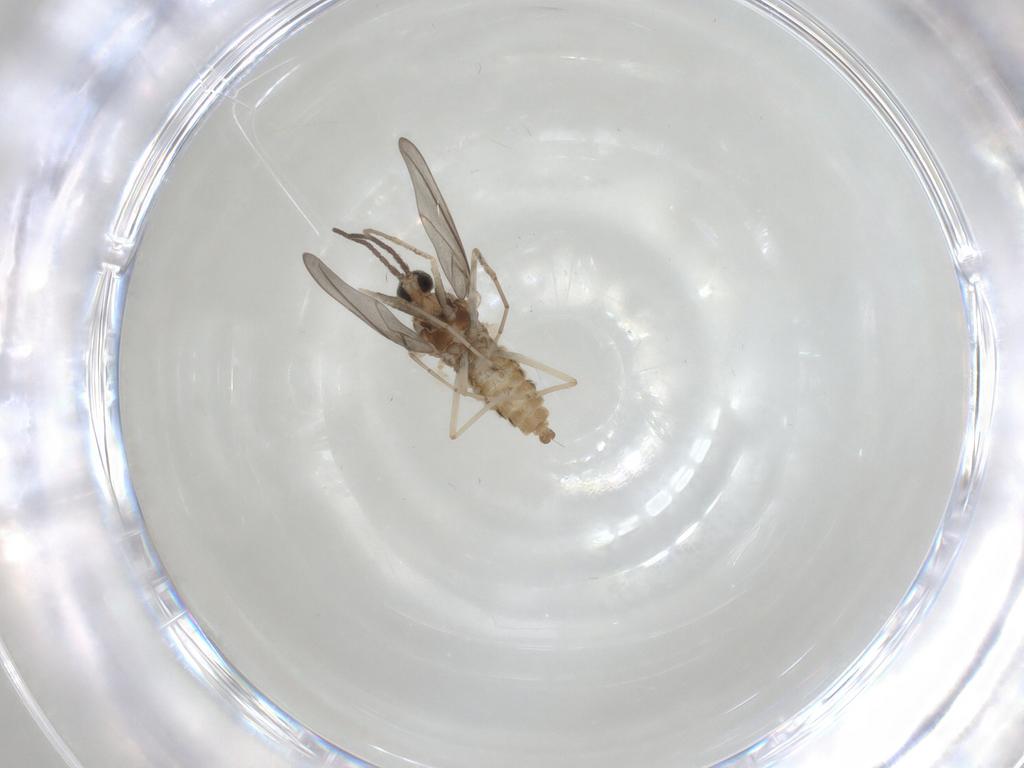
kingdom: Animalia
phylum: Arthropoda
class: Insecta
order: Diptera
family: Cecidomyiidae
